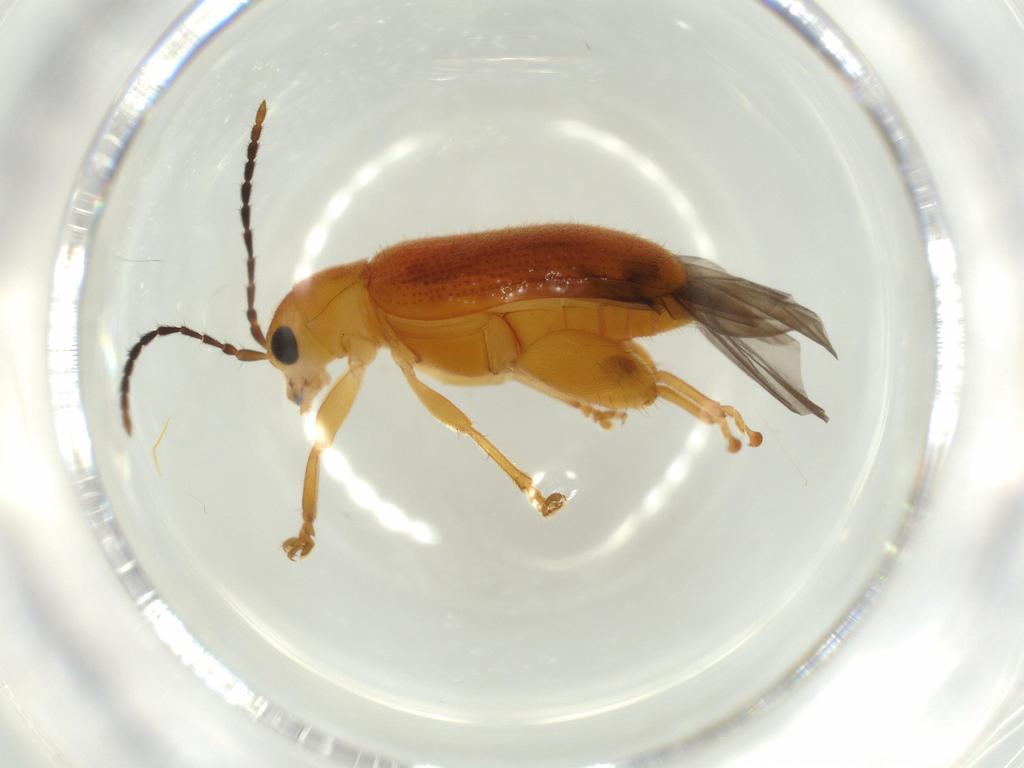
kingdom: Animalia
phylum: Arthropoda
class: Insecta
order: Coleoptera
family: Chrysomelidae
